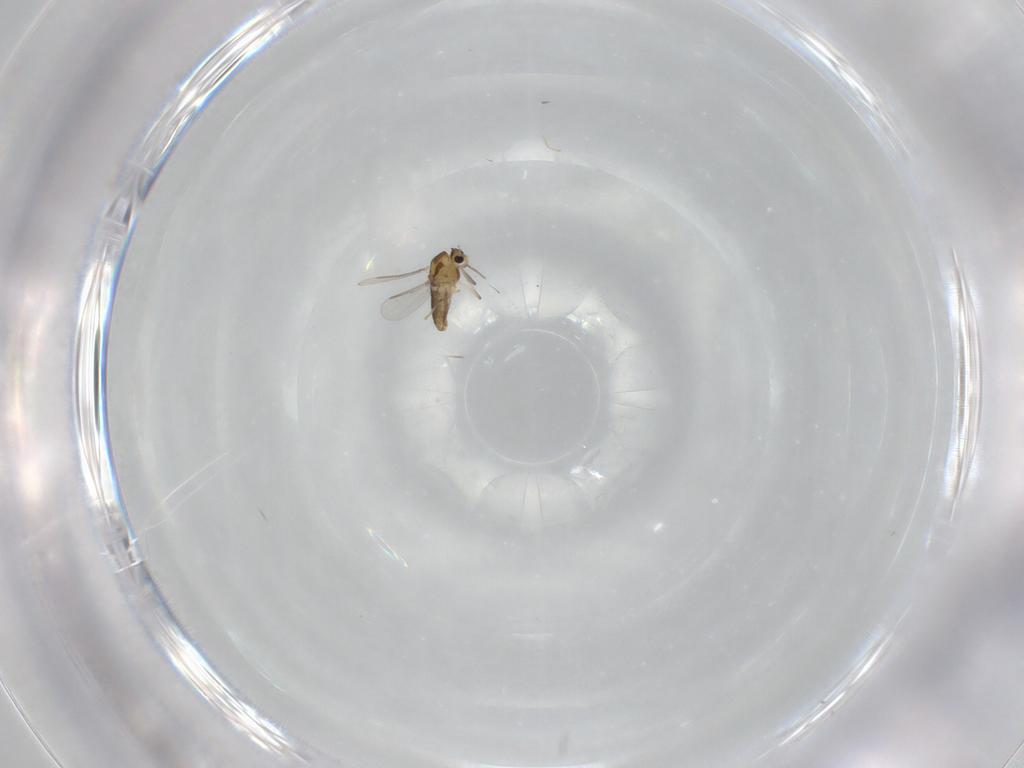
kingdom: Animalia
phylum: Arthropoda
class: Insecta
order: Diptera
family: Chironomidae
